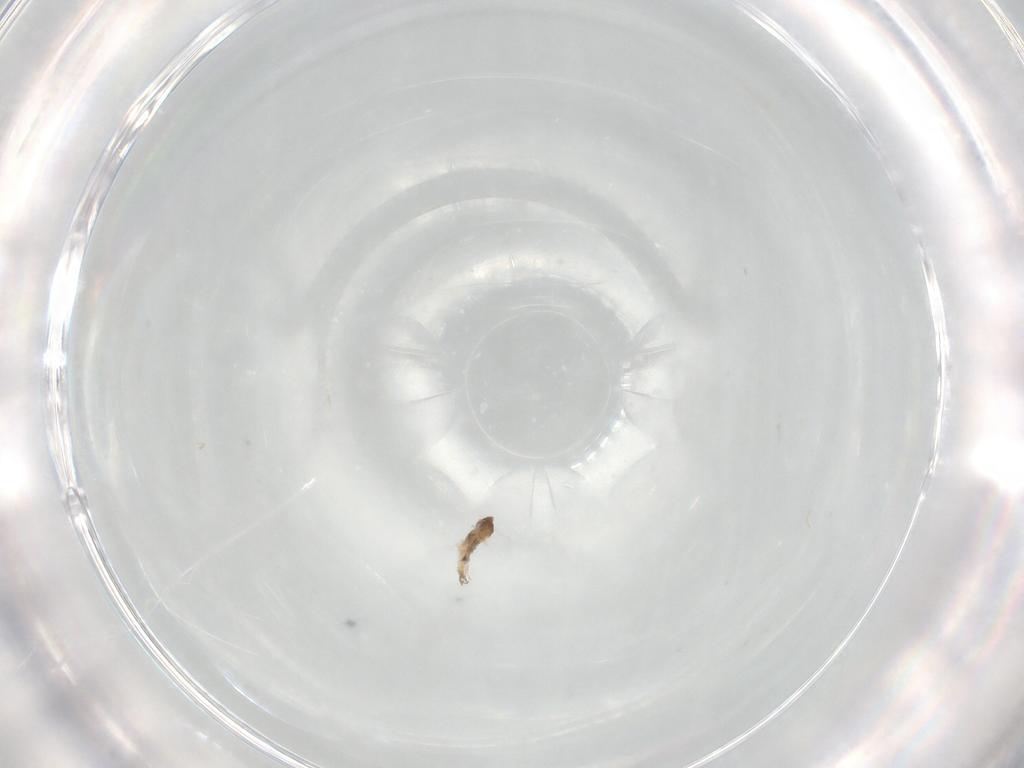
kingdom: Animalia
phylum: Arthropoda
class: Insecta
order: Diptera
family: Cecidomyiidae
